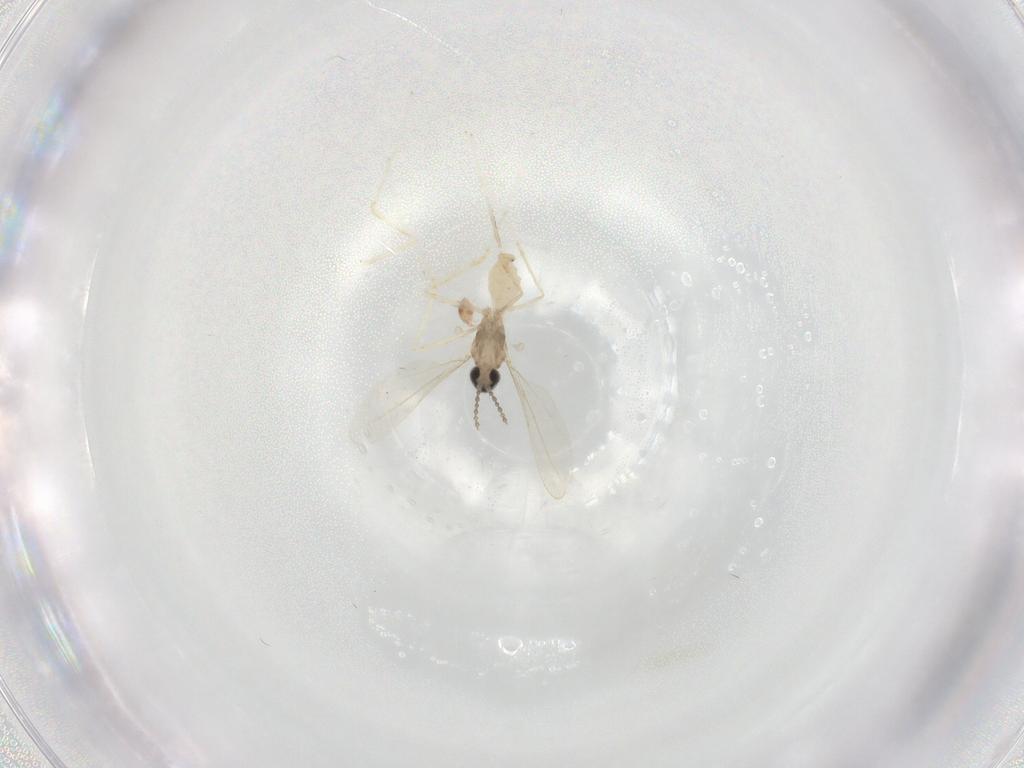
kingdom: Animalia
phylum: Arthropoda
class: Insecta
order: Diptera
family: Cecidomyiidae
